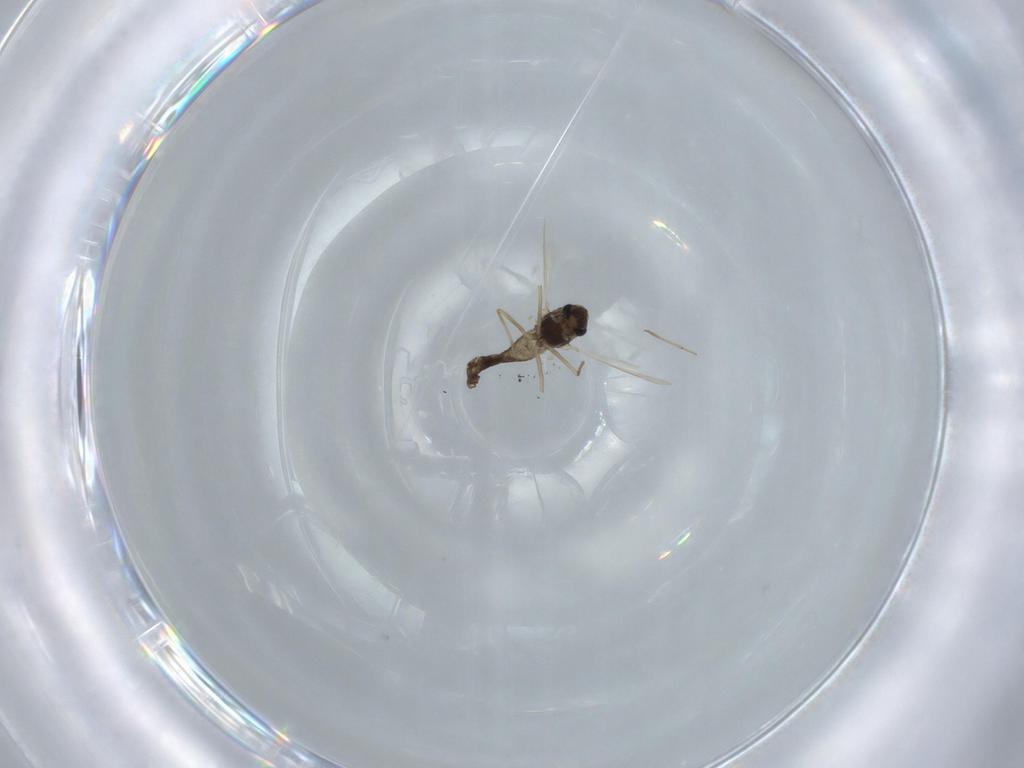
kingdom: Animalia
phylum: Arthropoda
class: Insecta
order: Diptera
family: Chironomidae
